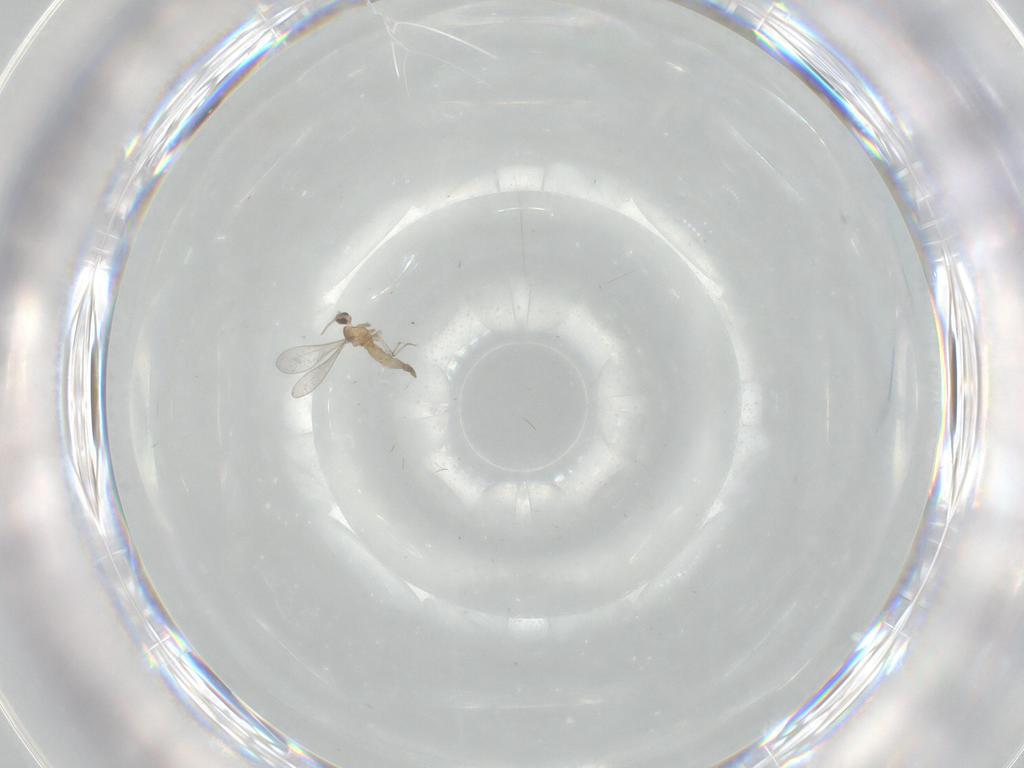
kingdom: Animalia
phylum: Arthropoda
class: Insecta
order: Diptera
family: Cecidomyiidae
